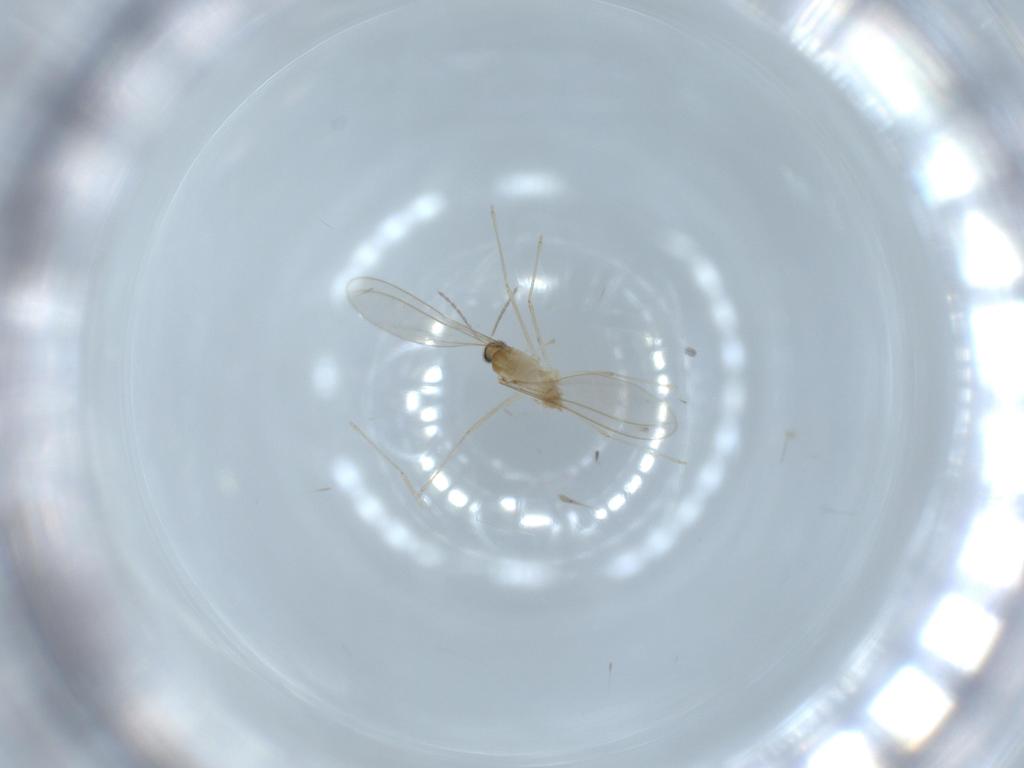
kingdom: Animalia
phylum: Arthropoda
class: Insecta
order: Diptera
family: Cecidomyiidae
